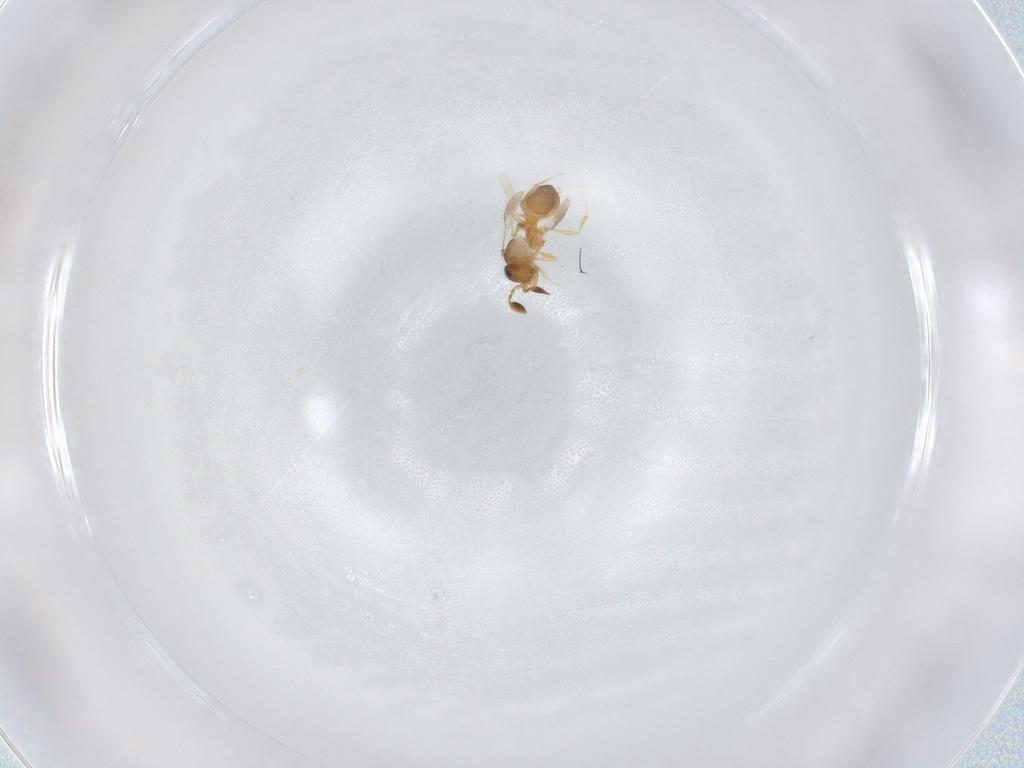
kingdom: Animalia
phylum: Arthropoda
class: Insecta
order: Hymenoptera
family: Scelionidae
